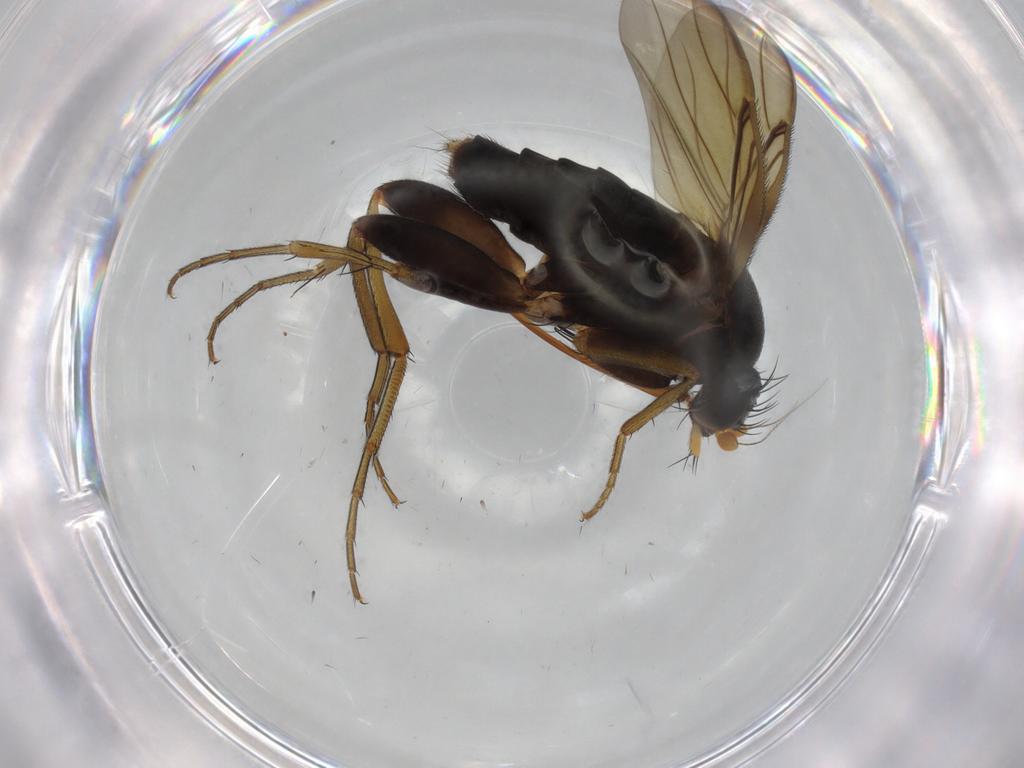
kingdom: Animalia
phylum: Arthropoda
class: Insecta
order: Diptera
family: Phoridae
